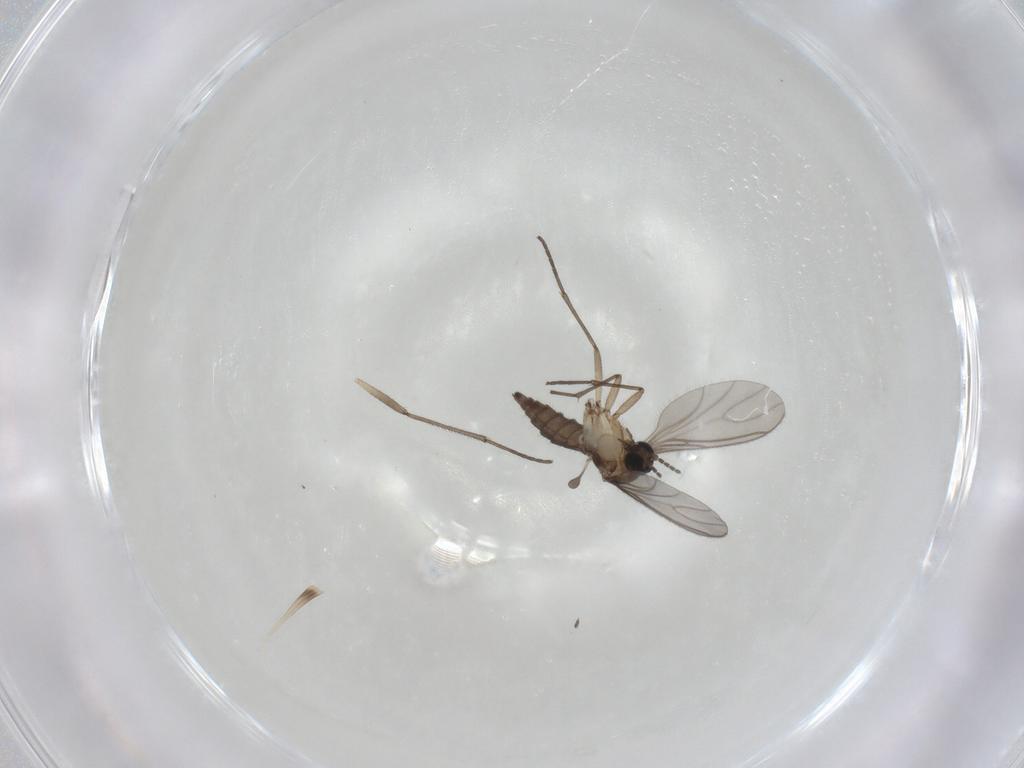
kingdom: Animalia
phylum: Arthropoda
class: Insecta
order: Diptera
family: Sciaridae
